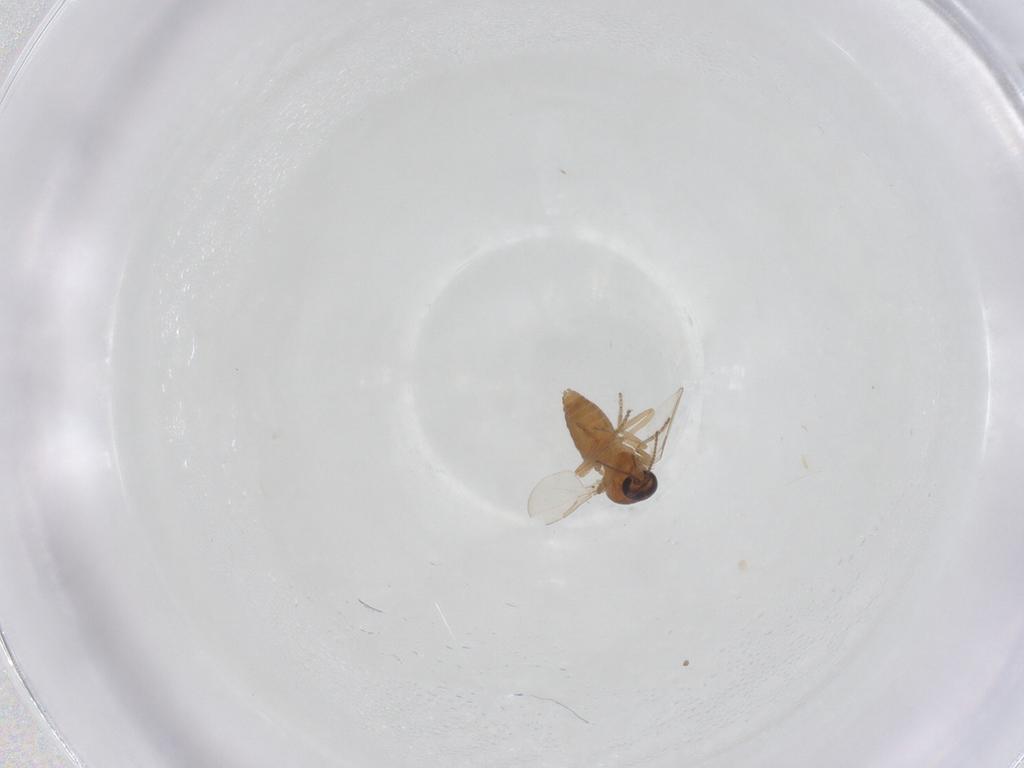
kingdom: Animalia
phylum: Arthropoda
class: Insecta
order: Diptera
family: Ceratopogonidae
